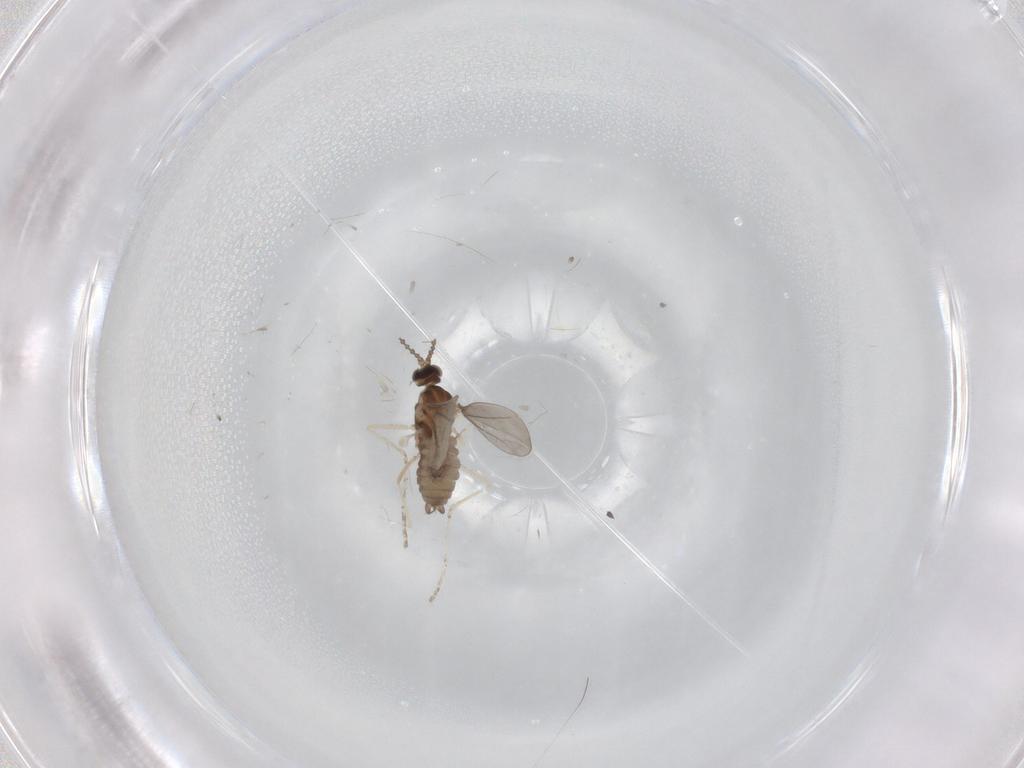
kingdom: Animalia
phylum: Arthropoda
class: Insecta
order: Diptera
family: Cecidomyiidae
